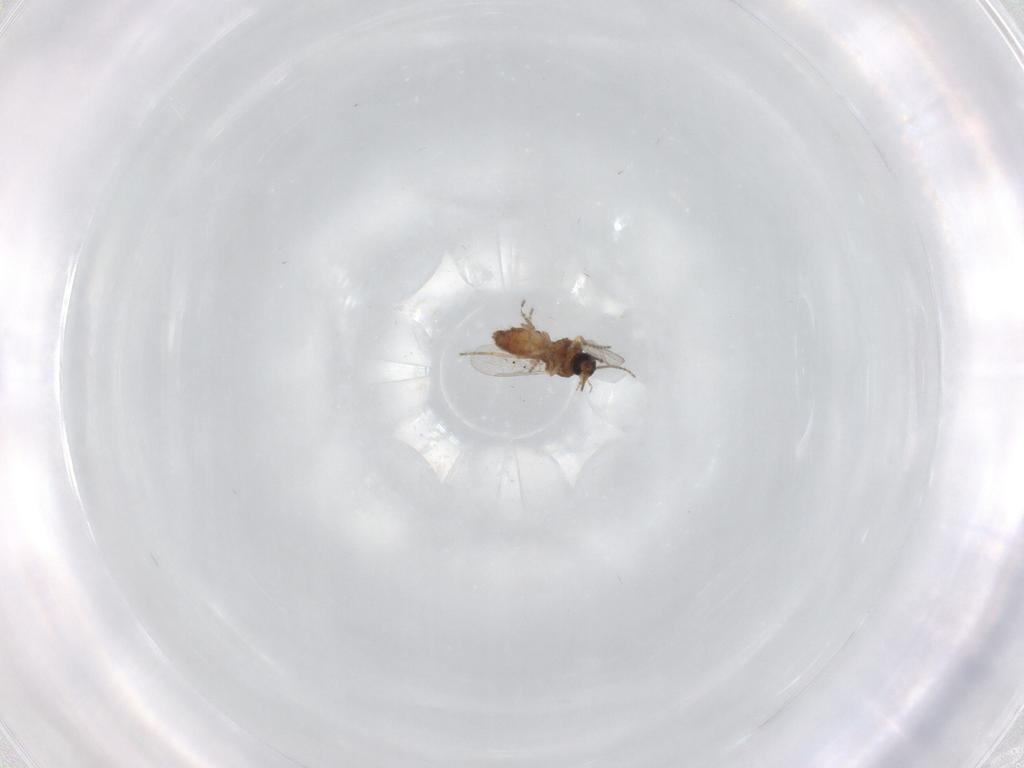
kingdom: Animalia
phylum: Arthropoda
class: Insecta
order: Diptera
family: Ceratopogonidae
